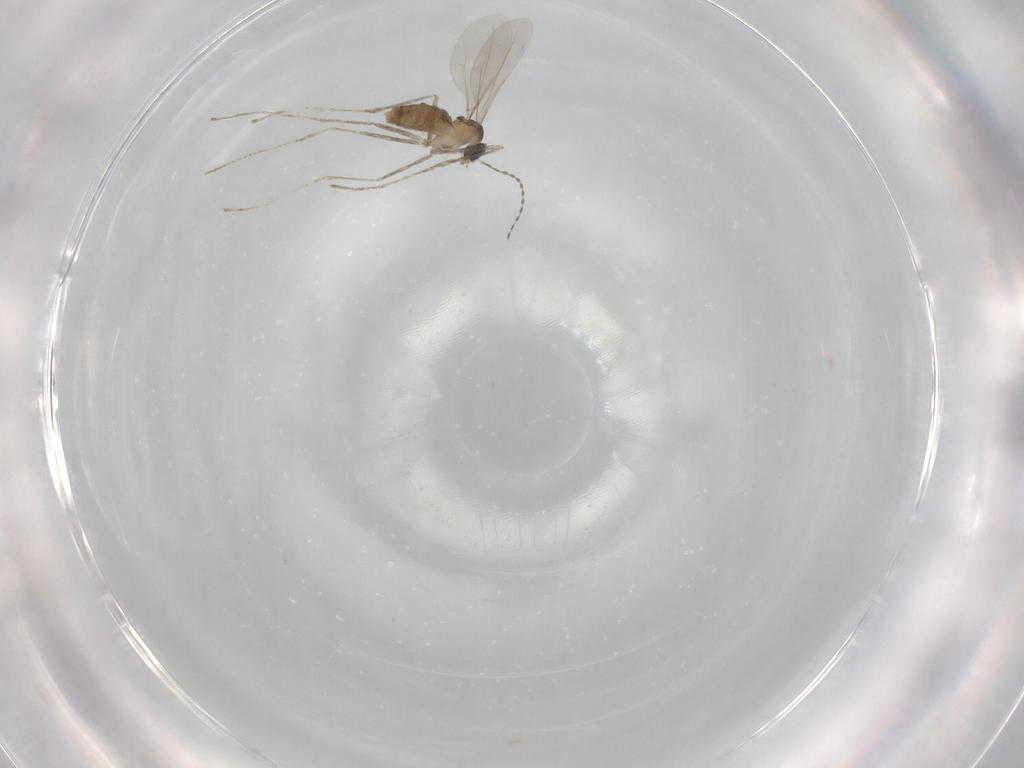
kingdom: Animalia
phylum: Arthropoda
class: Insecta
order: Diptera
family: Ceratopogonidae
